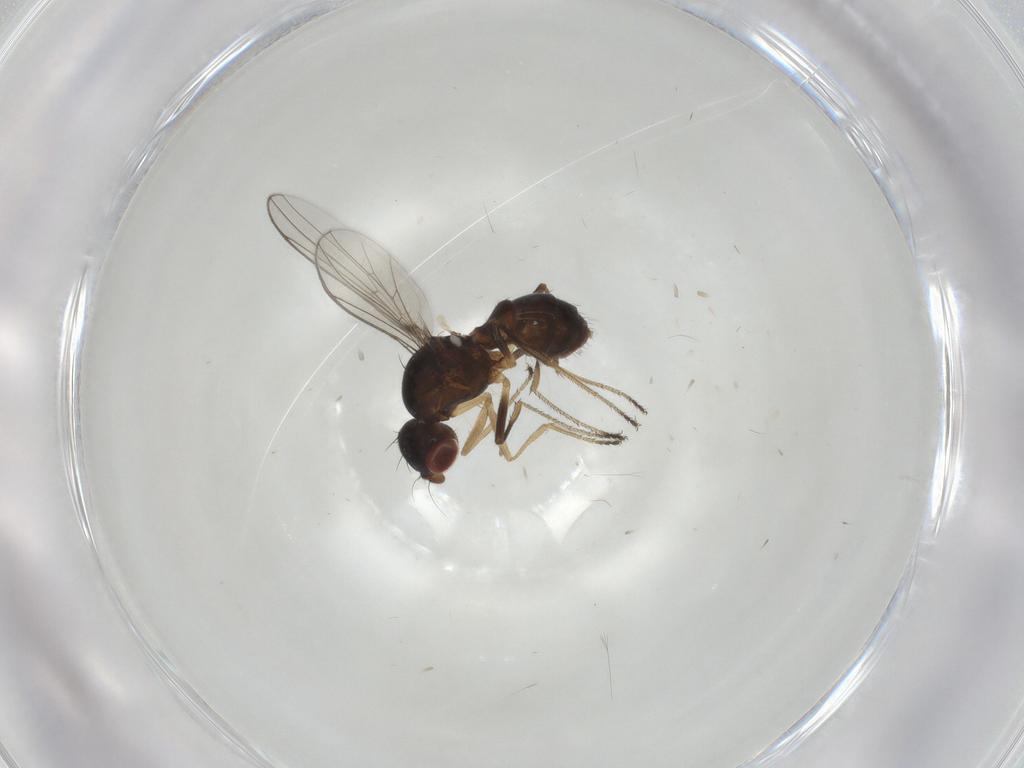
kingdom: Animalia
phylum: Arthropoda
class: Insecta
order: Diptera
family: Sepsidae
